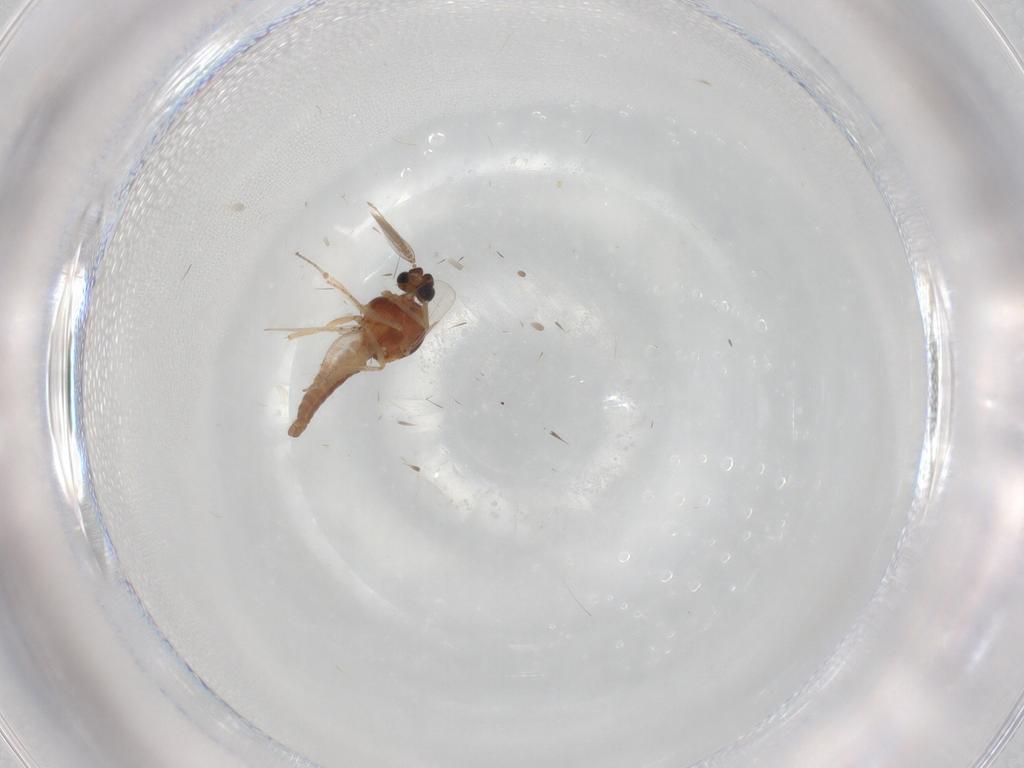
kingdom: Animalia
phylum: Arthropoda
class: Insecta
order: Diptera
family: Ceratopogonidae
